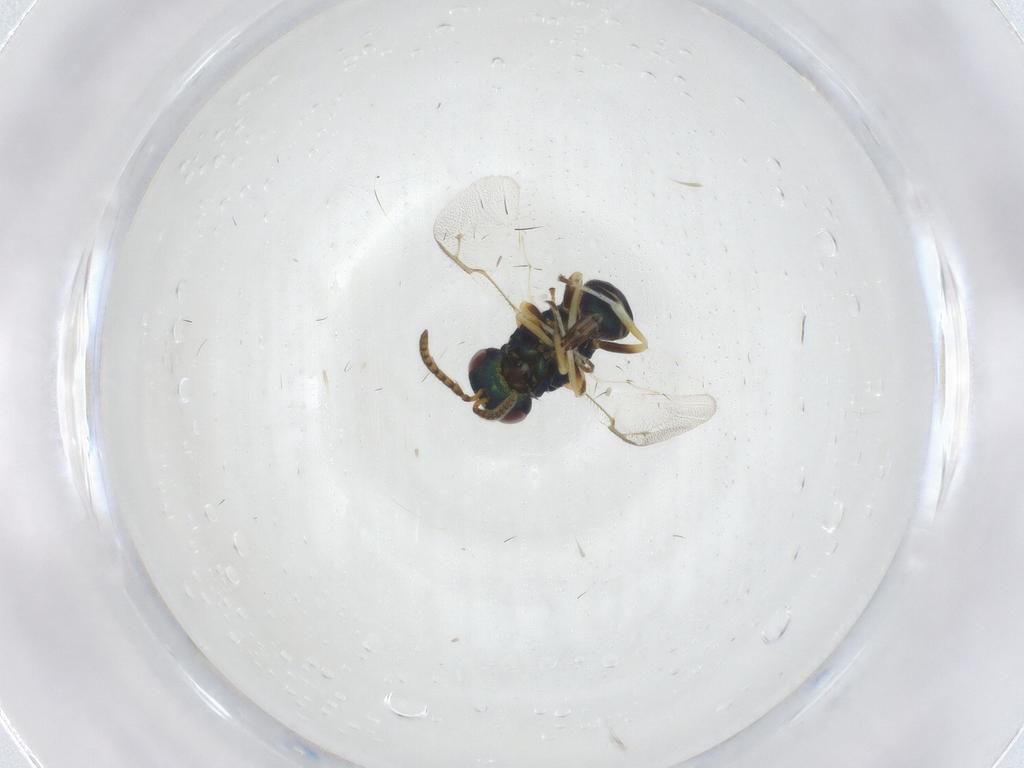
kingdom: Animalia
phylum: Arthropoda
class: Insecta
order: Hymenoptera
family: Pteromalidae
